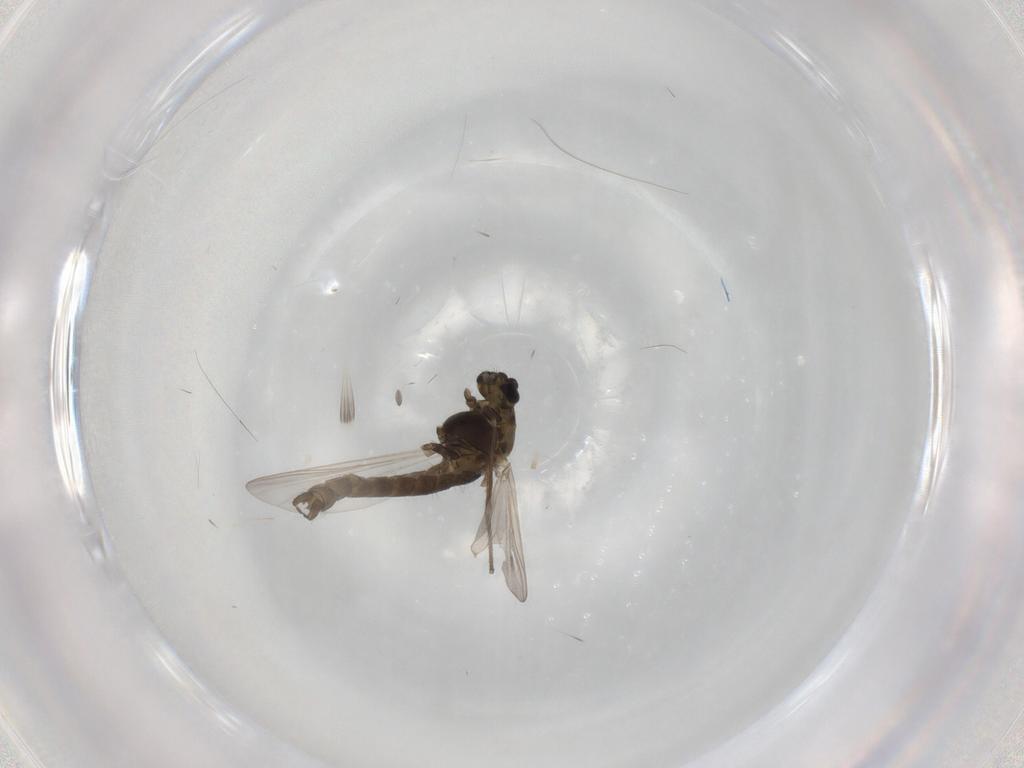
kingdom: Animalia
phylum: Arthropoda
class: Insecta
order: Diptera
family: Chironomidae
